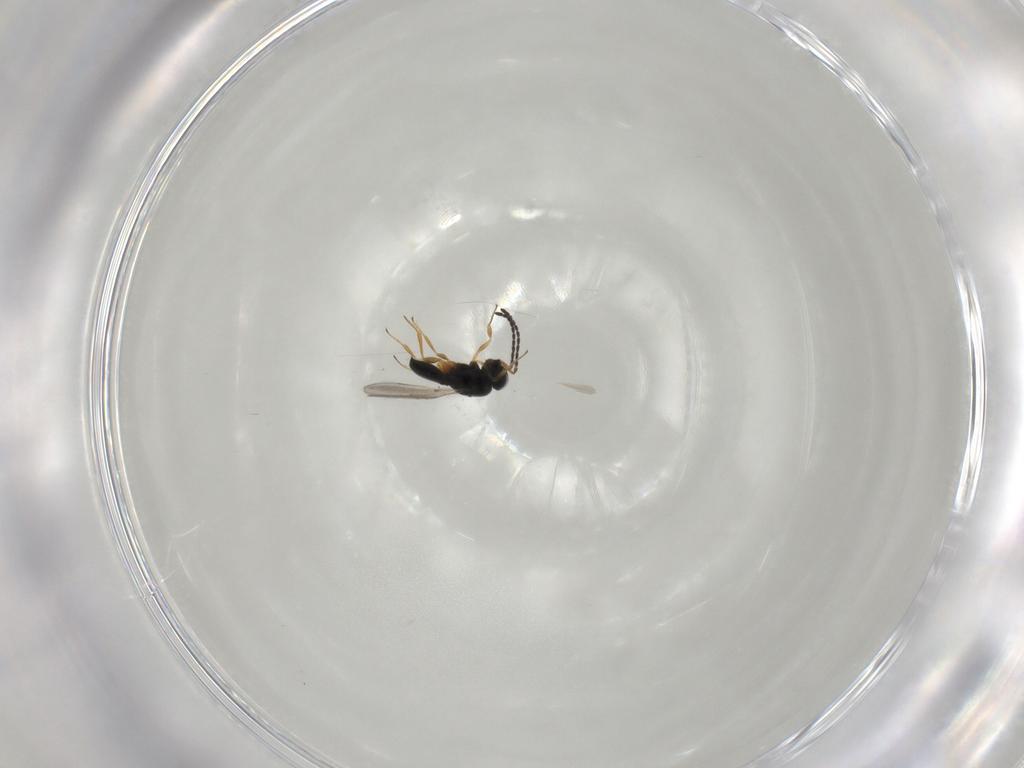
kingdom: Animalia
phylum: Arthropoda
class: Insecta
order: Hymenoptera
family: Scelionidae
